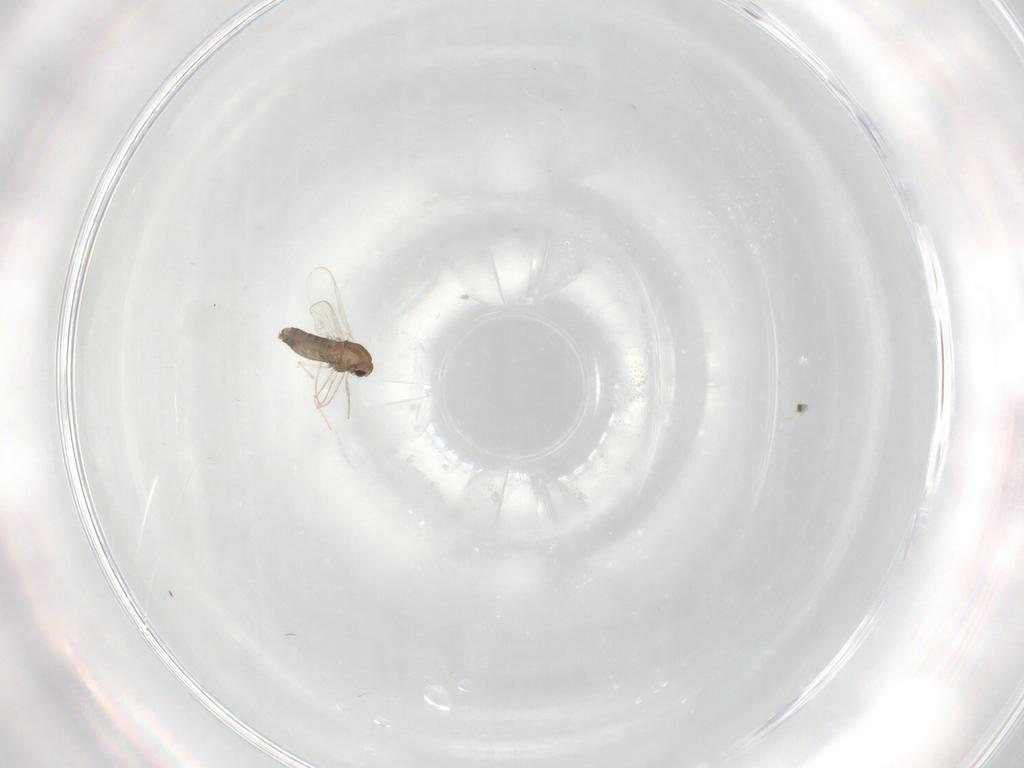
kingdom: Animalia
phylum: Arthropoda
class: Insecta
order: Diptera
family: Chironomidae
